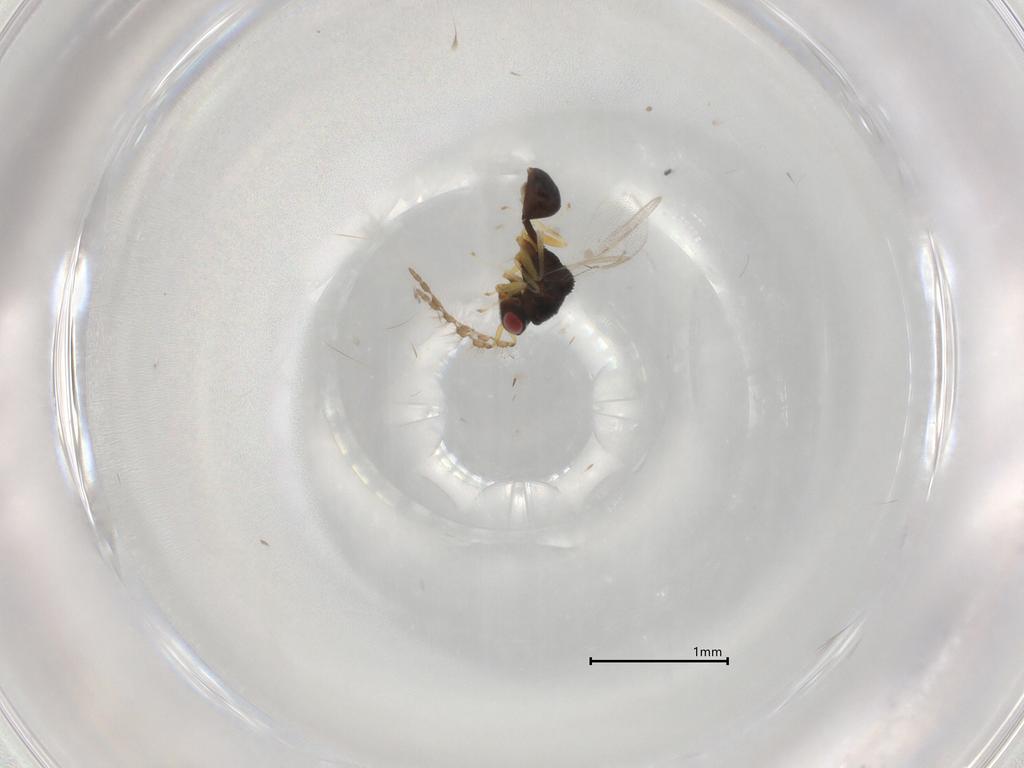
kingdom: Animalia
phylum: Arthropoda
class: Insecta
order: Hymenoptera
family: Eurytomidae
